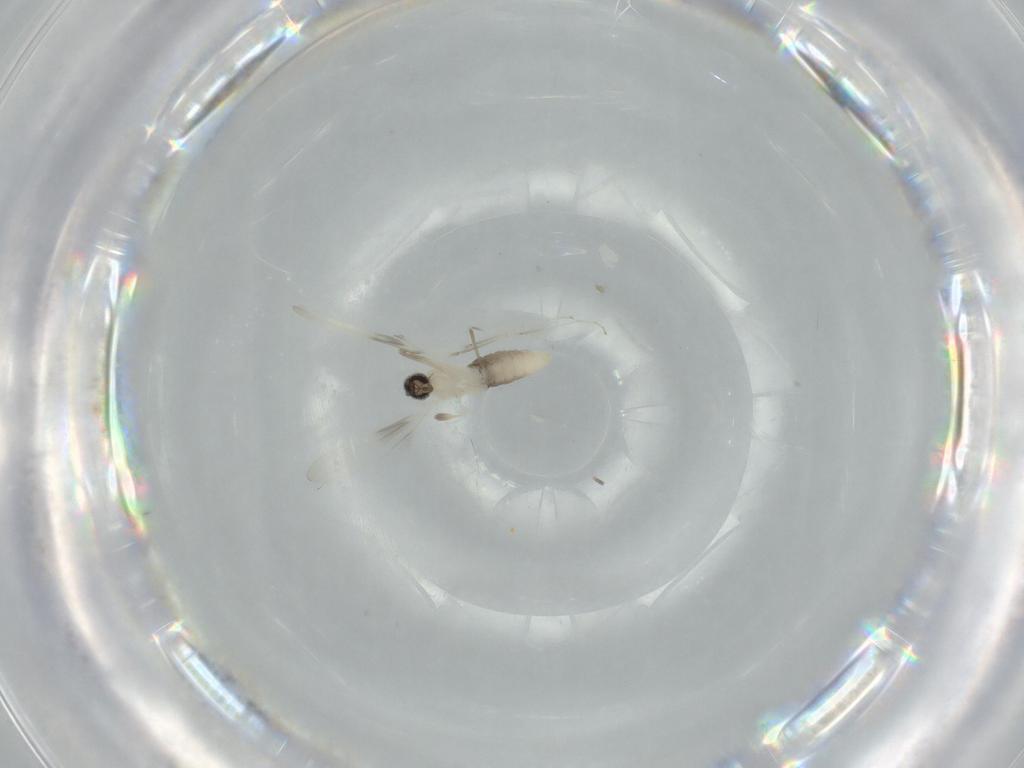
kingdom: Animalia
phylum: Arthropoda
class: Insecta
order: Diptera
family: Cecidomyiidae
